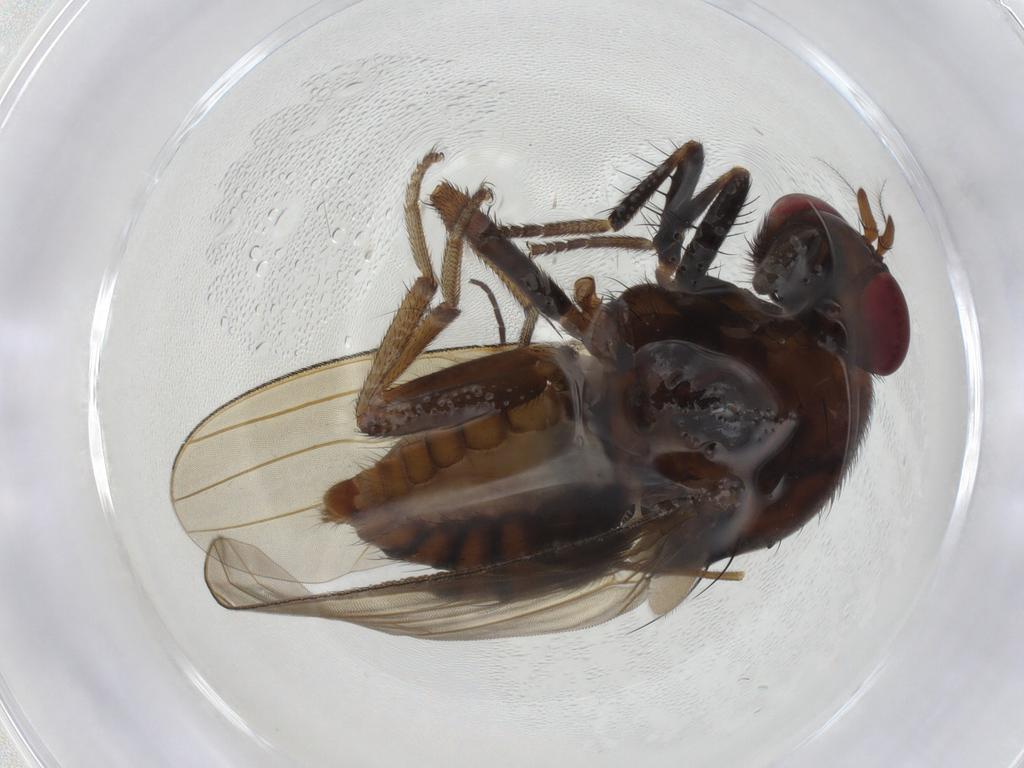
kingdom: Animalia
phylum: Arthropoda
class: Insecta
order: Diptera
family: Limoniidae
